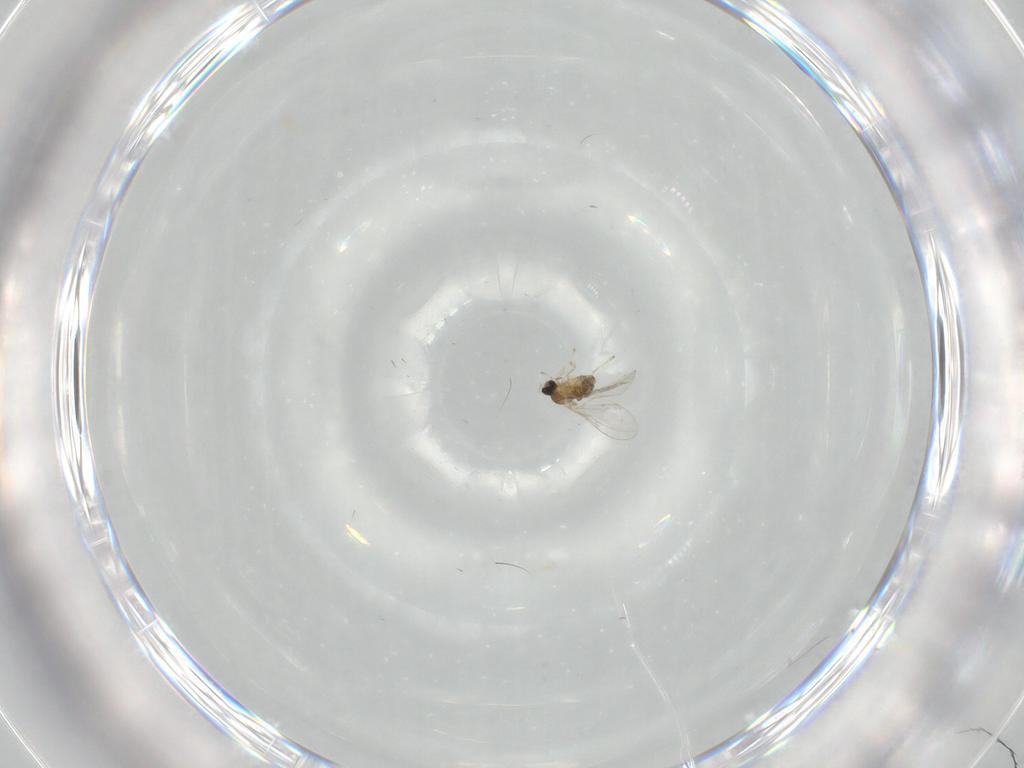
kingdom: Animalia
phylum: Arthropoda
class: Insecta
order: Diptera
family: Cecidomyiidae
